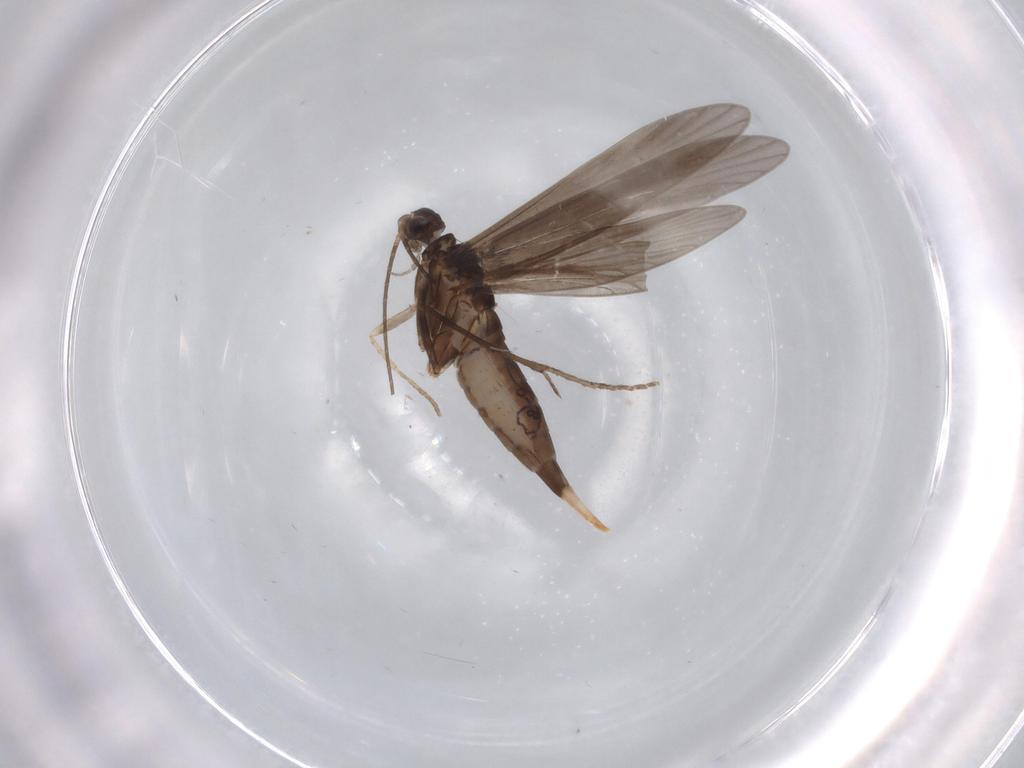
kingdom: Animalia
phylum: Arthropoda
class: Insecta
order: Trichoptera
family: Xiphocentronidae
